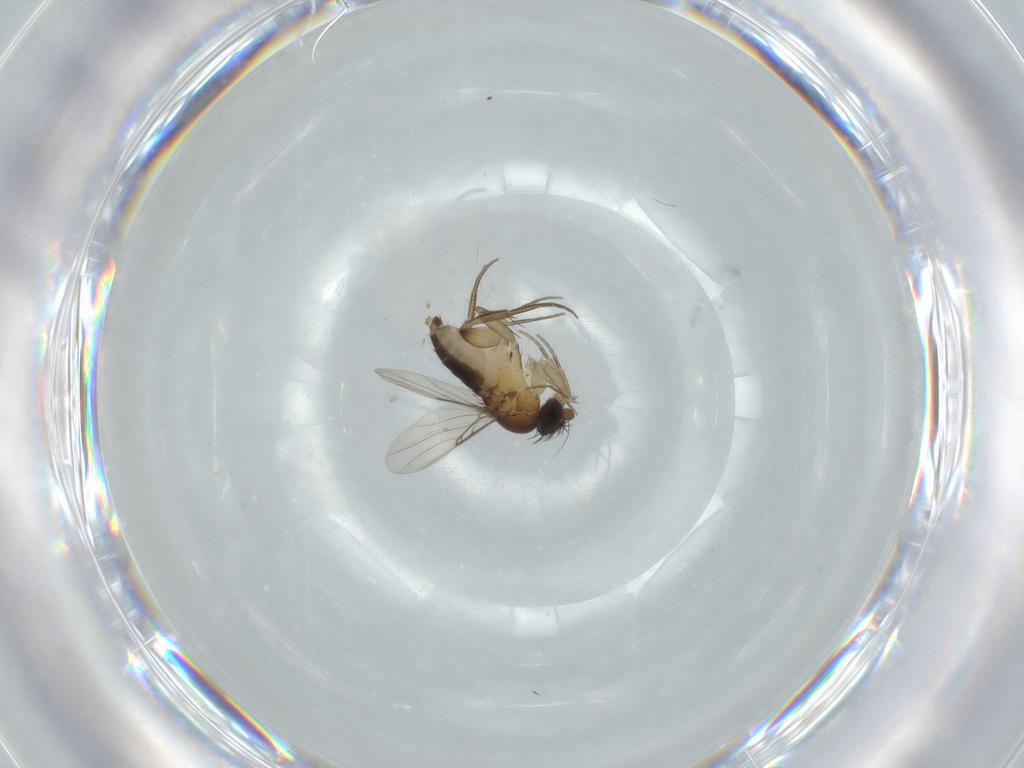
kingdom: Animalia
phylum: Arthropoda
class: Insecta
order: Diptera
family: Phoridae
